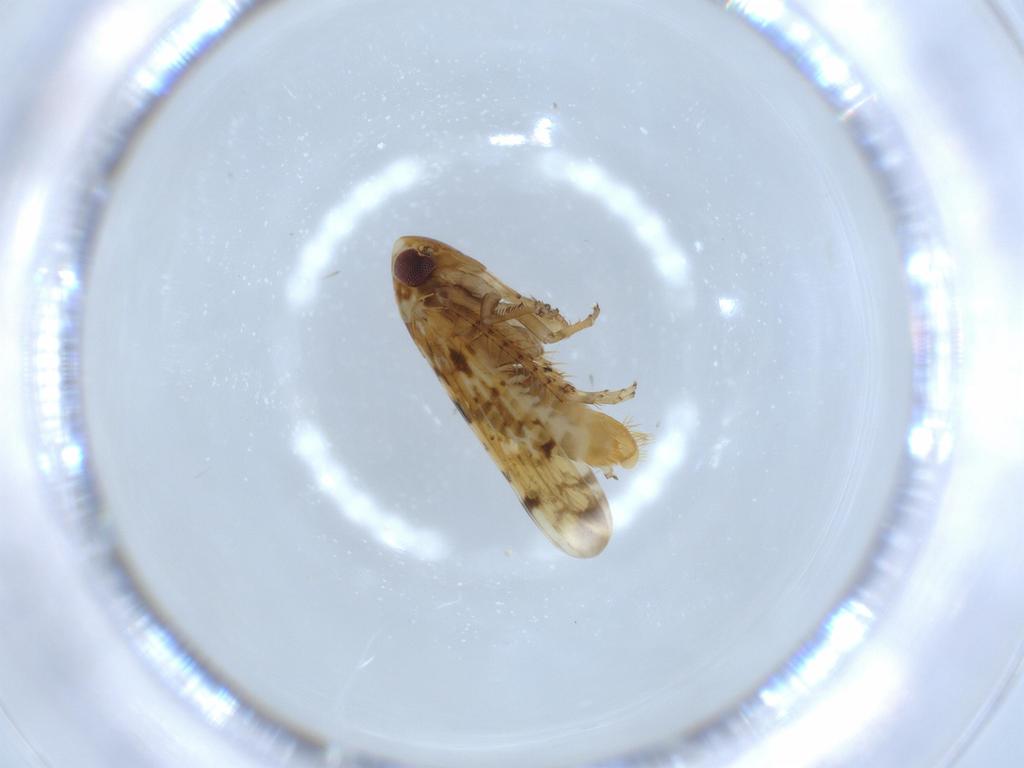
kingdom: Animalia
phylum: Arthropoda
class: Insecta
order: Hemiptera
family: Cicadellidae
